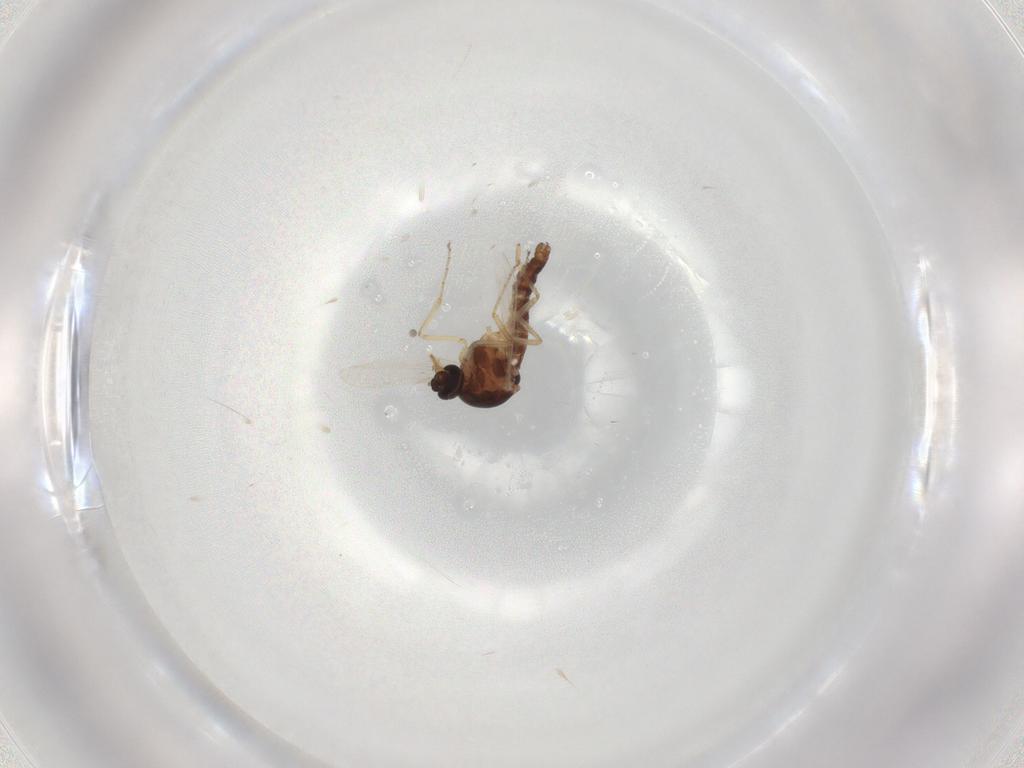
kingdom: Animalia
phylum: Arthropoda
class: Insecta
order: Diptera
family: Ceratopogonidae
